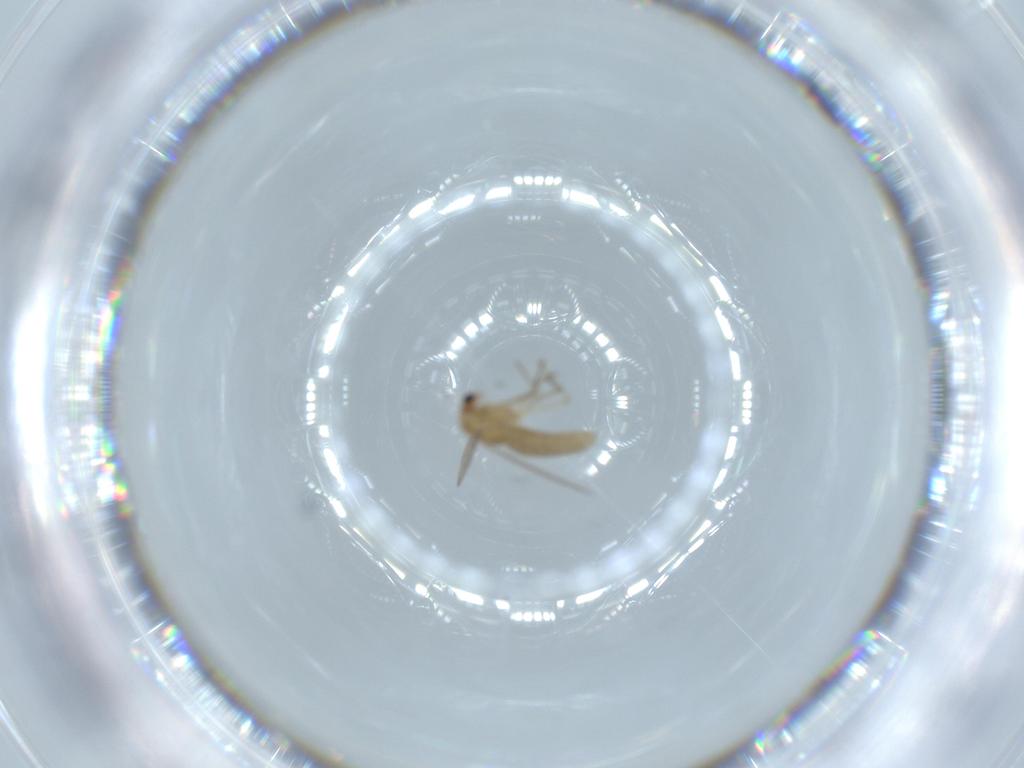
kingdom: Animalia
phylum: Arthropoda
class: Insecta
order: Diptera
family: Chironomidae
